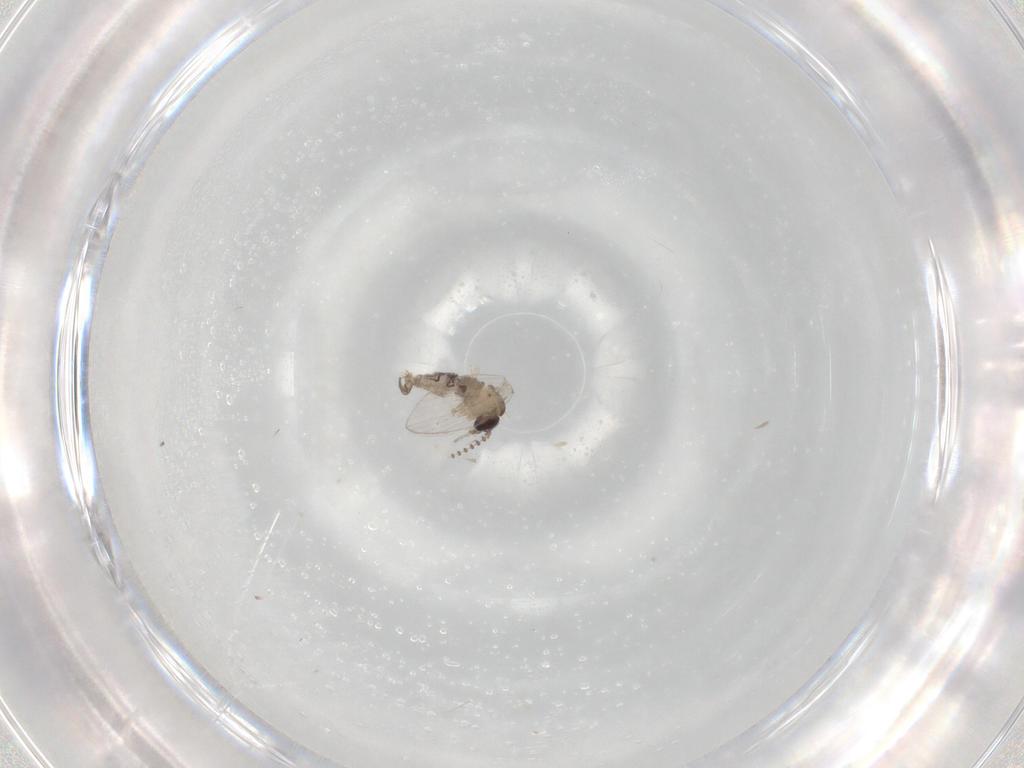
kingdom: Animalia
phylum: Arthropoda
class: Insecta
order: Diptera
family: Psychodidae
